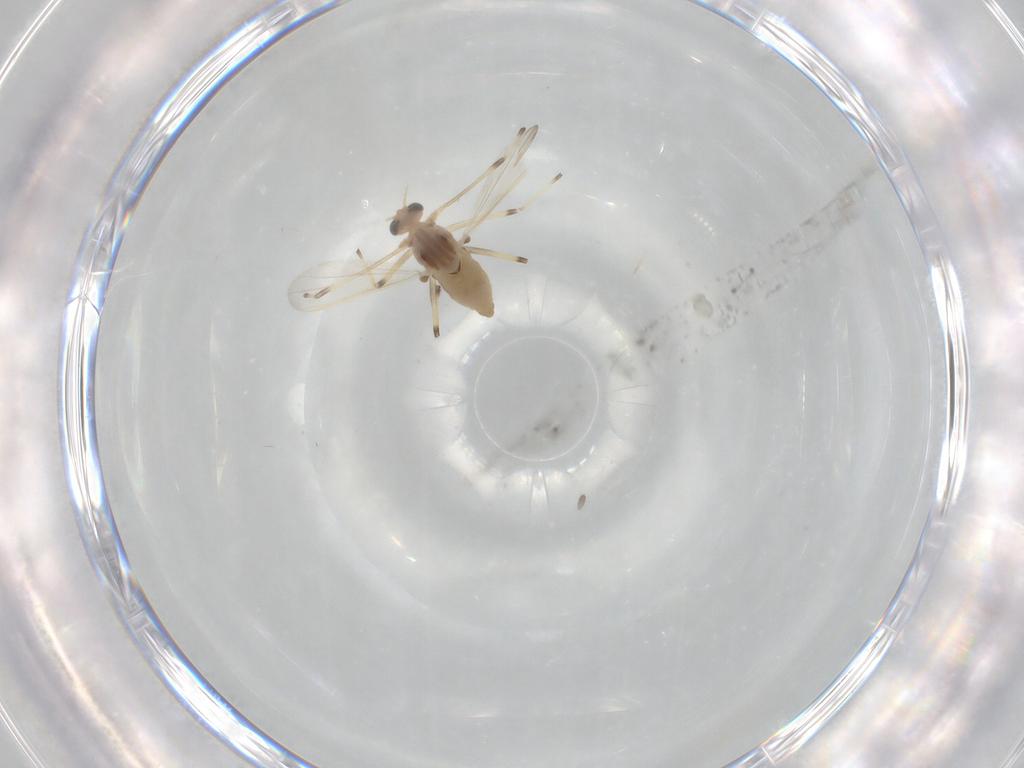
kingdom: Animalia
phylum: Arthropoda
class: Insecta
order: Diptera
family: Chironomidae
